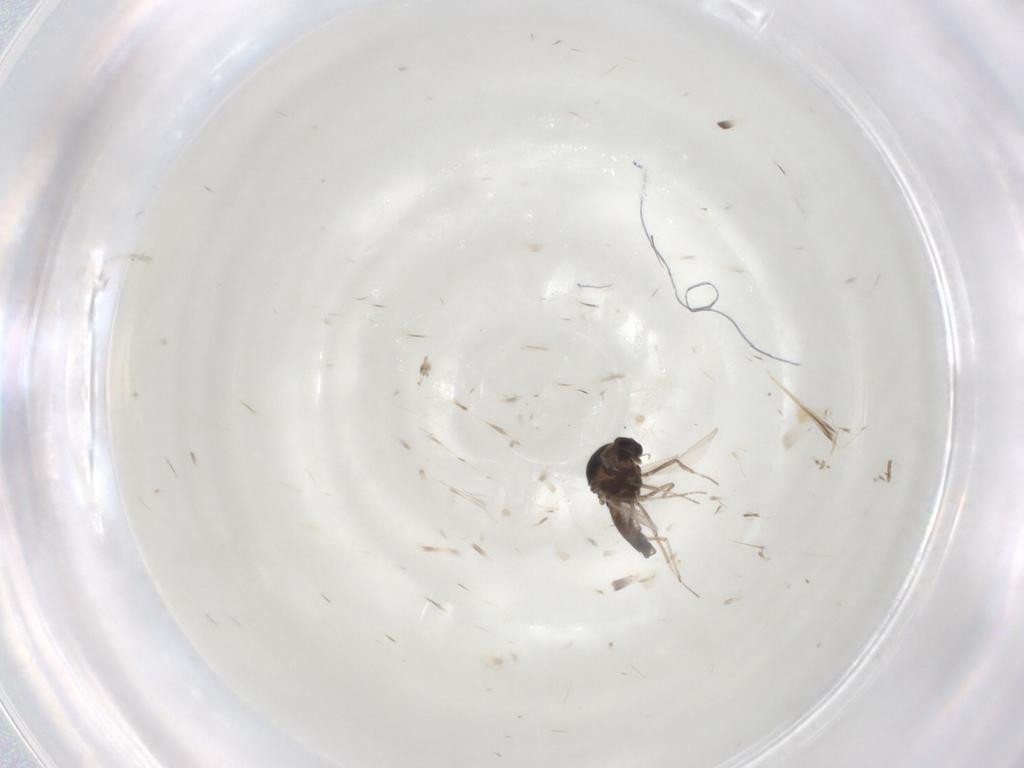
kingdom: Animalia
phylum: Arthropoda
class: Insecta
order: Diptera
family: Ceratopogonidae
